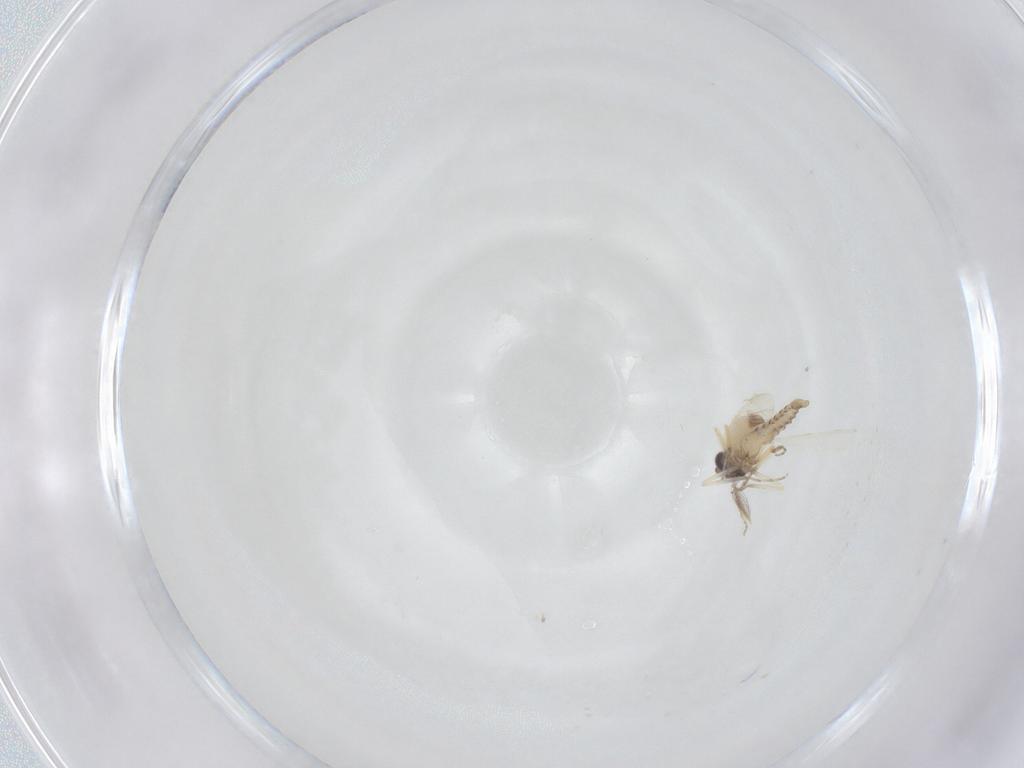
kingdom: Animalia
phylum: Arthropoda
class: Insecta
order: Diptera
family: Ceratopogonidae
